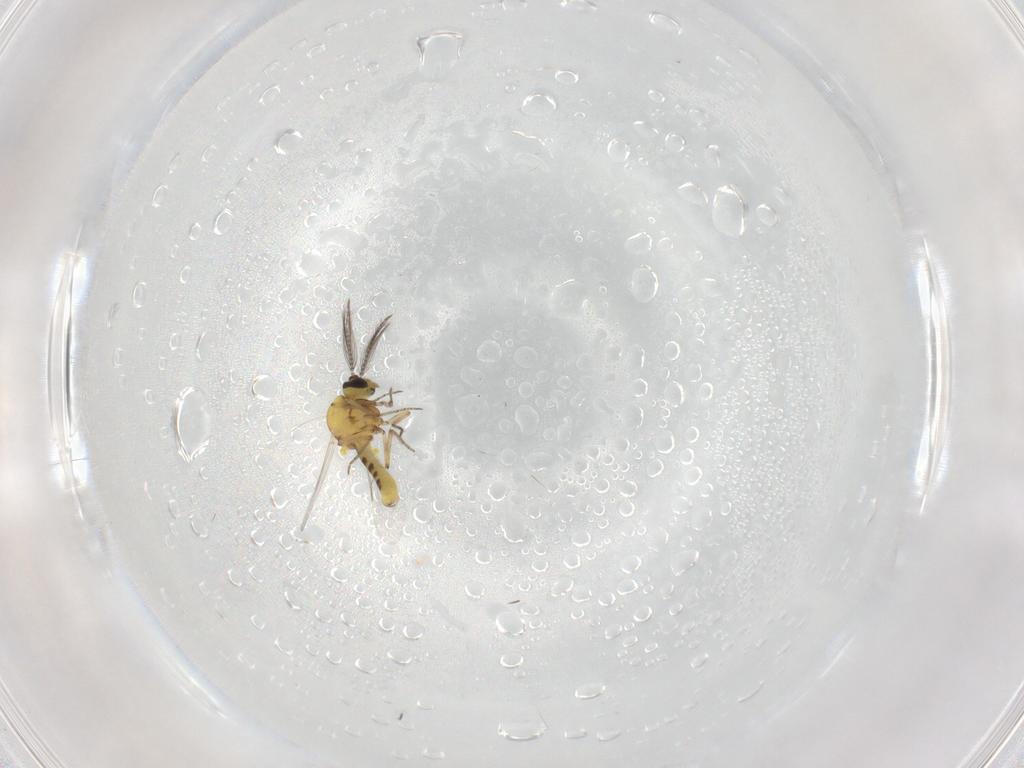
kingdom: Animalia
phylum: Arthropoda
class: Insecta
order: Diptera
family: Ceratopogonidae
